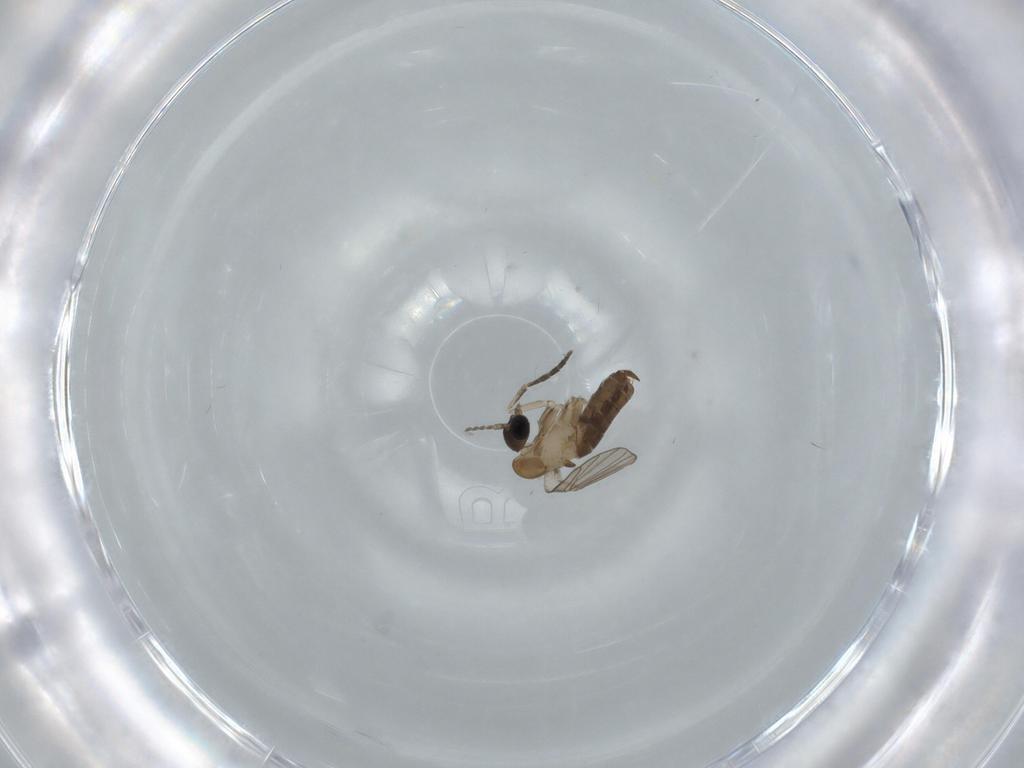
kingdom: Animalia
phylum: Arthropoda
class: Insecta
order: Diptera
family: Psychodidae
